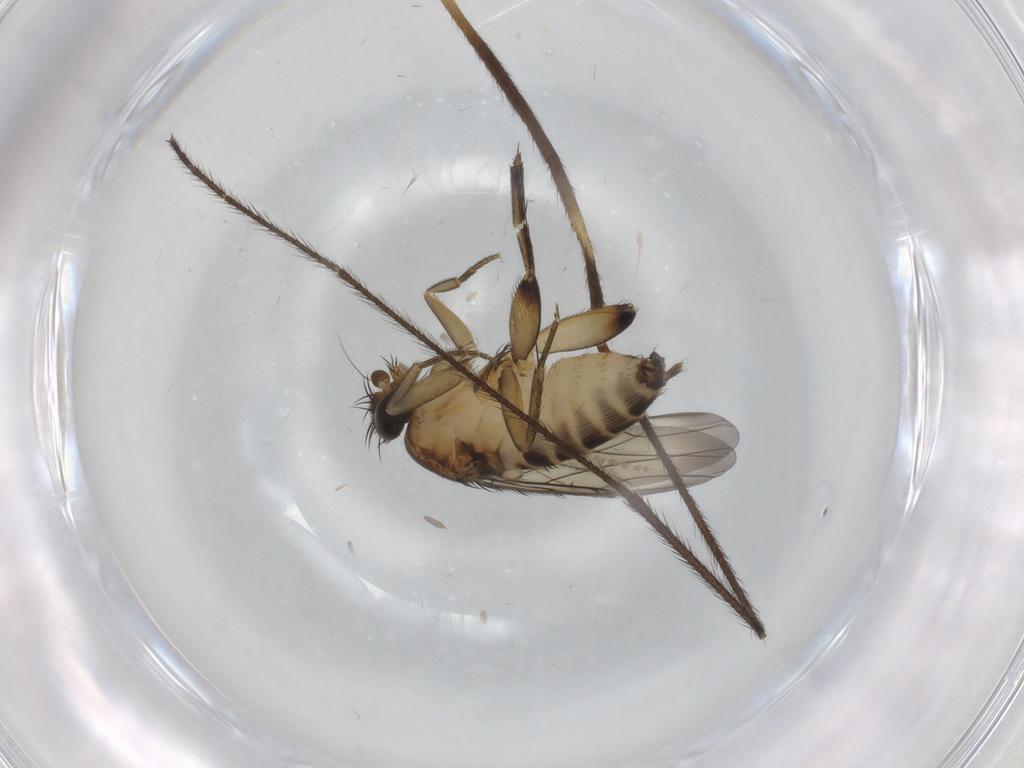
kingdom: Animalia
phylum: Arthropoda
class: Insecta
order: Diptera
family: Phoridae
